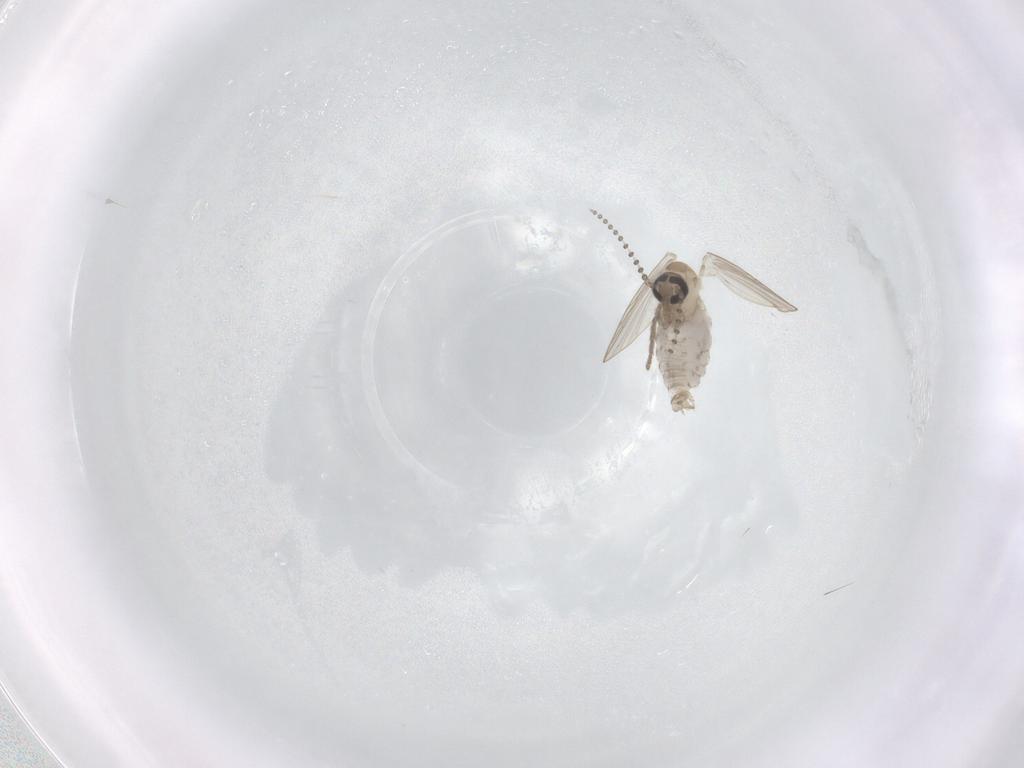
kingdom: Animalia
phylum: Arthropoda
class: Insecta
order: Diptera
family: Psychodidae
